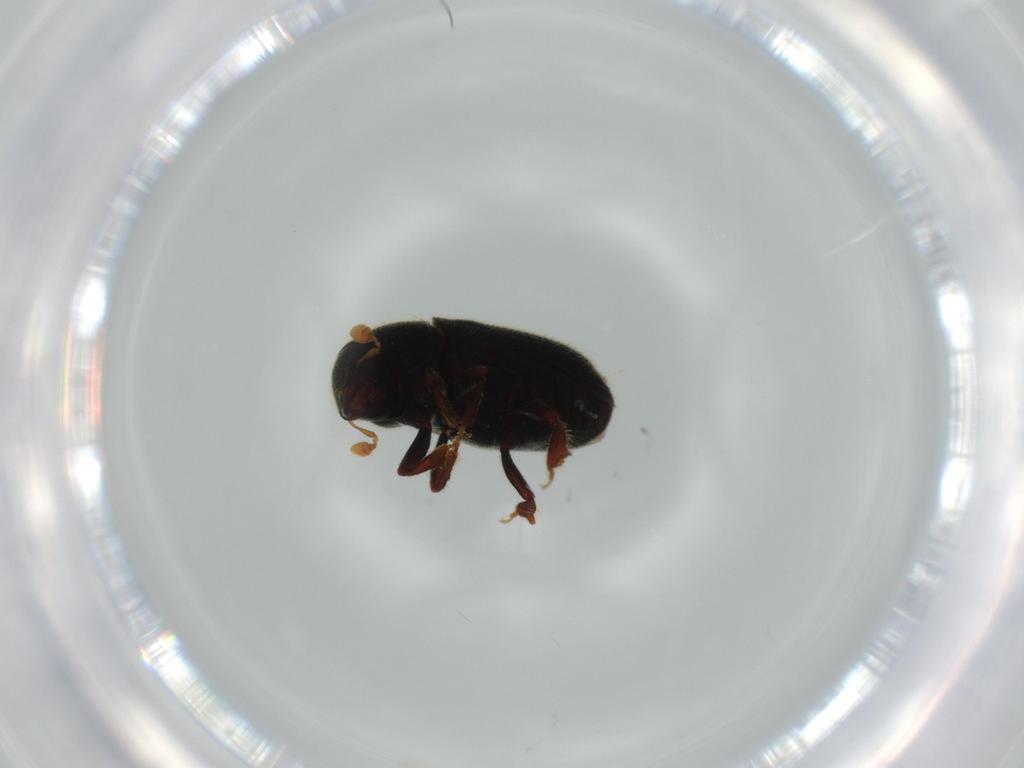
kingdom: Animalia
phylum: Arthropoda
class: Insecta
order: Coleoptera
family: Curculionidae
